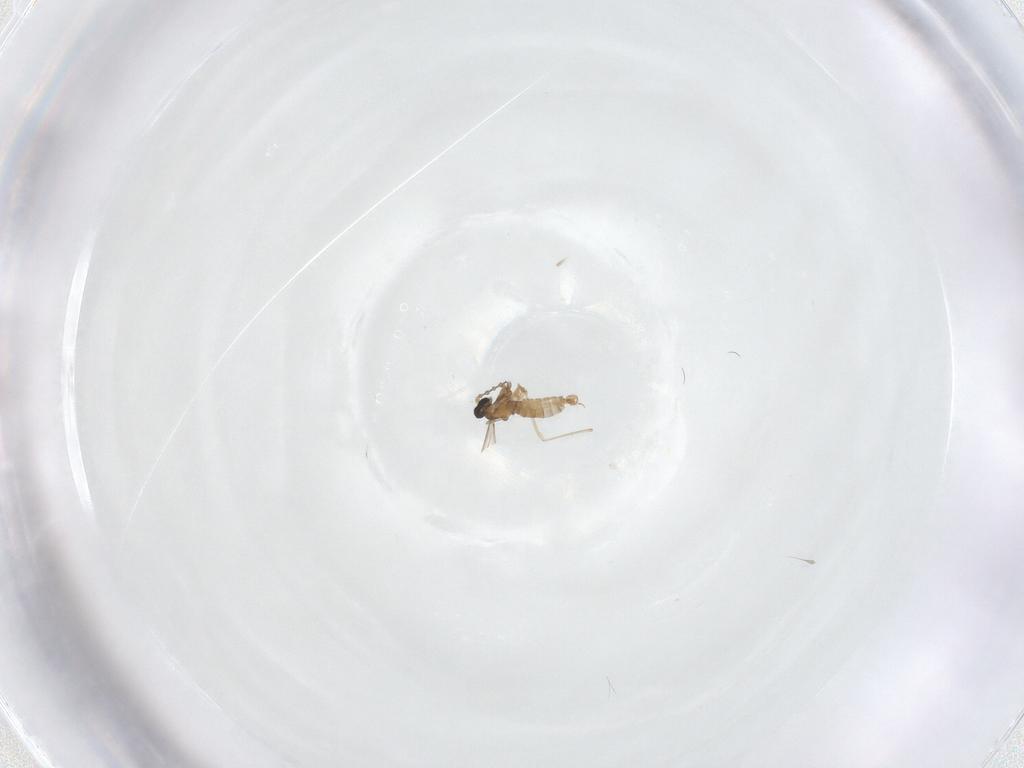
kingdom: Animalia
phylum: Arthropoda
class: Insecta
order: Diptera
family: Cecidomyiidae
